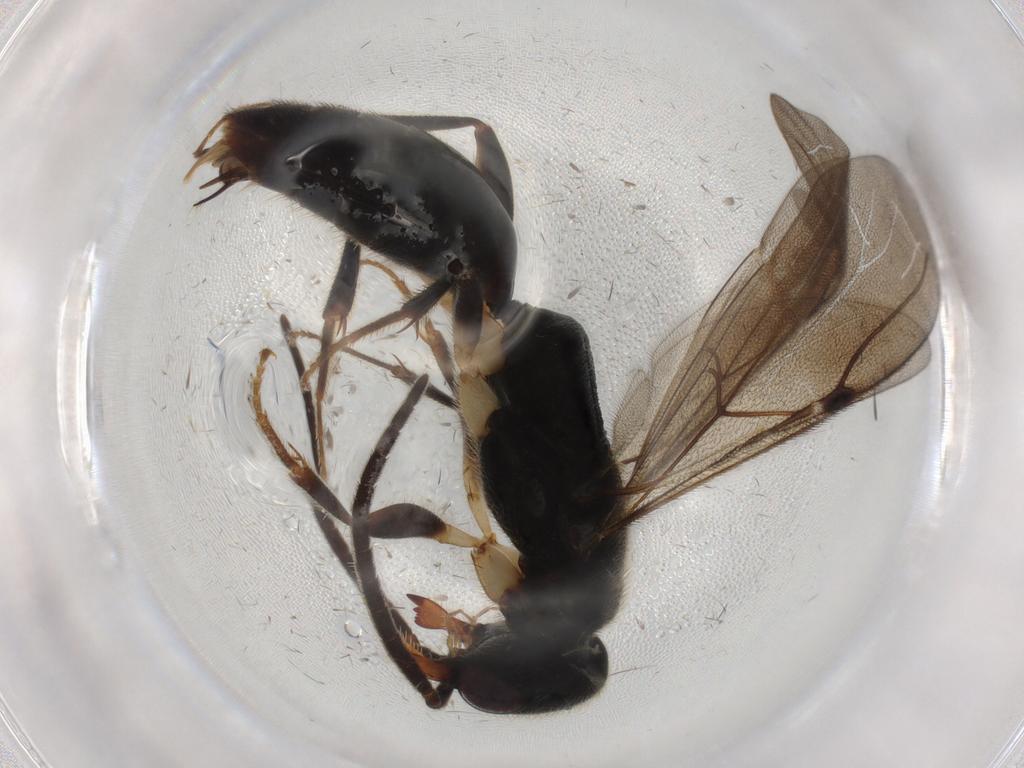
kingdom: Animalia
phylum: Arthropoda
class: Insecta
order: Hymenoptera
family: Bethylidae
